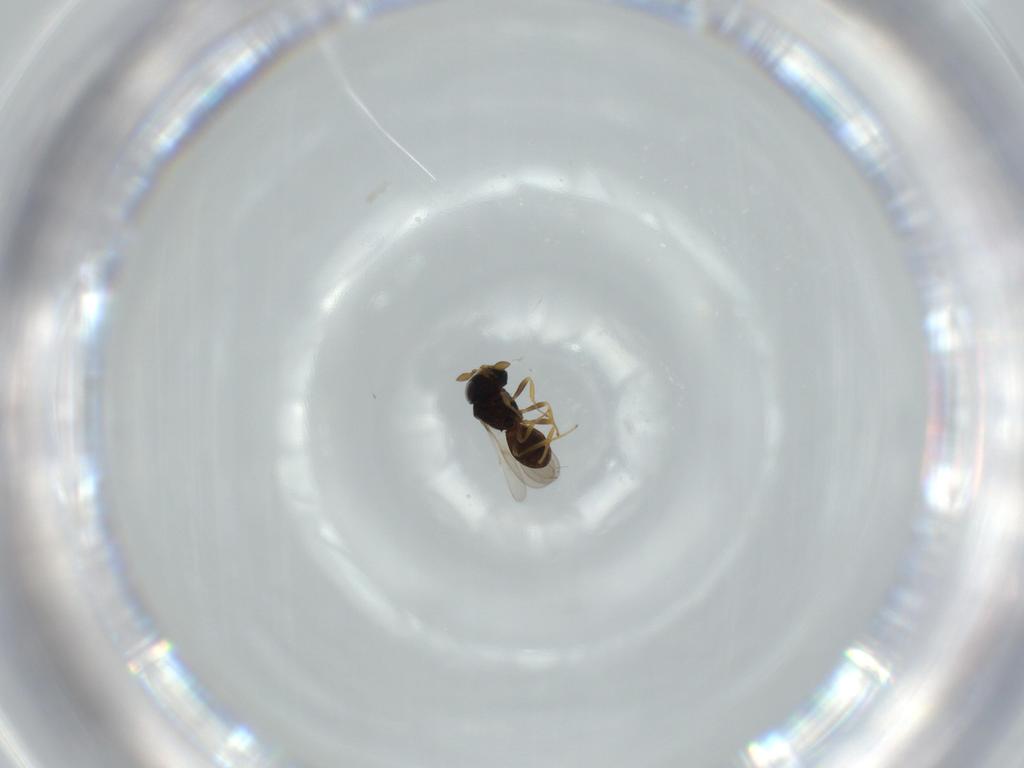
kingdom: Animalia
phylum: Arthropoda
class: Insecta
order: Hymenoptera
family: Scelionidae
